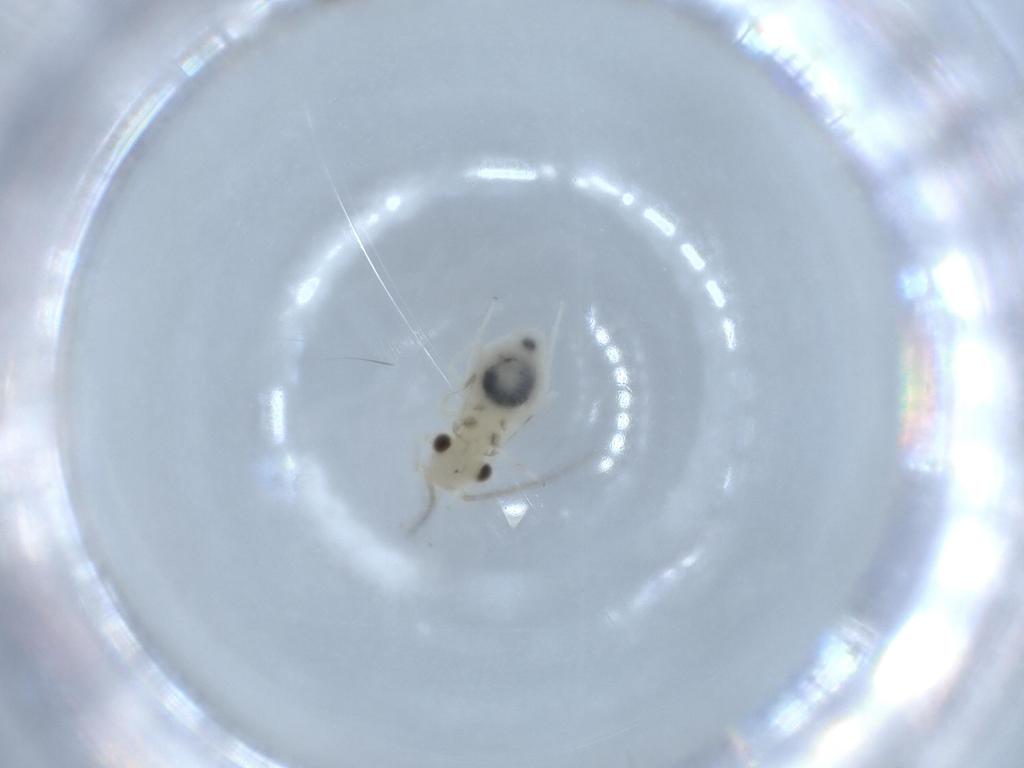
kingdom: Animalia
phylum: Arthropoda
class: Insecta
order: Psocodea
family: Caeciliusidae
